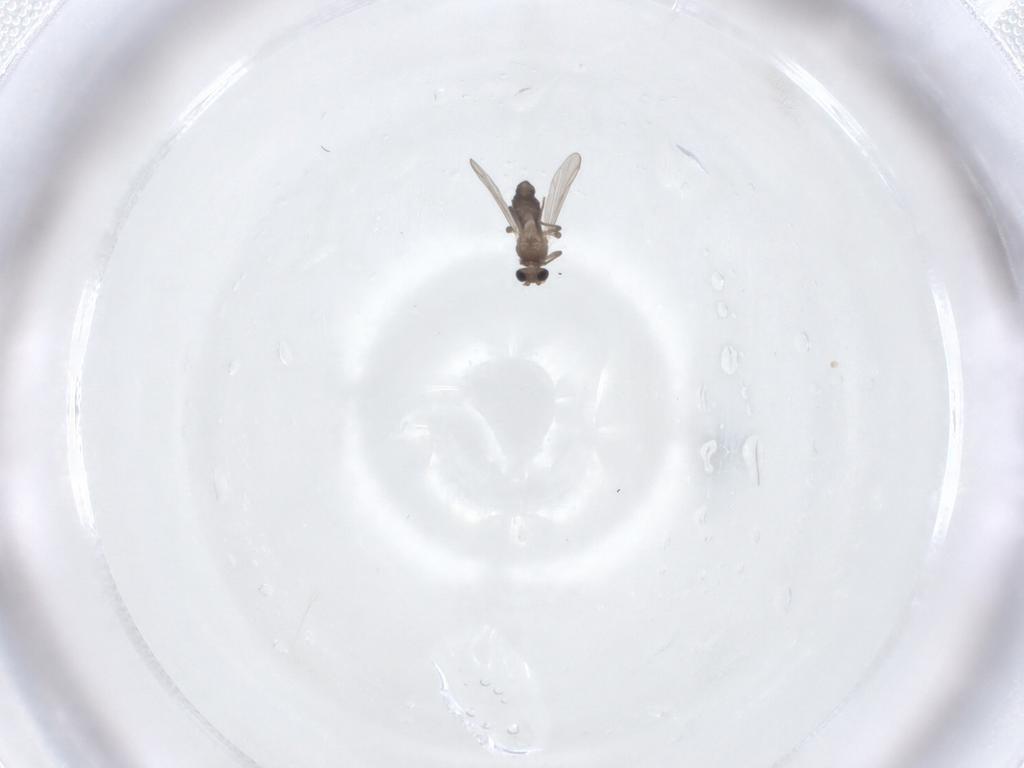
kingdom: Animalia
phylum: Arthropoda
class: Insecta
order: Diptera
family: Chironomidae
